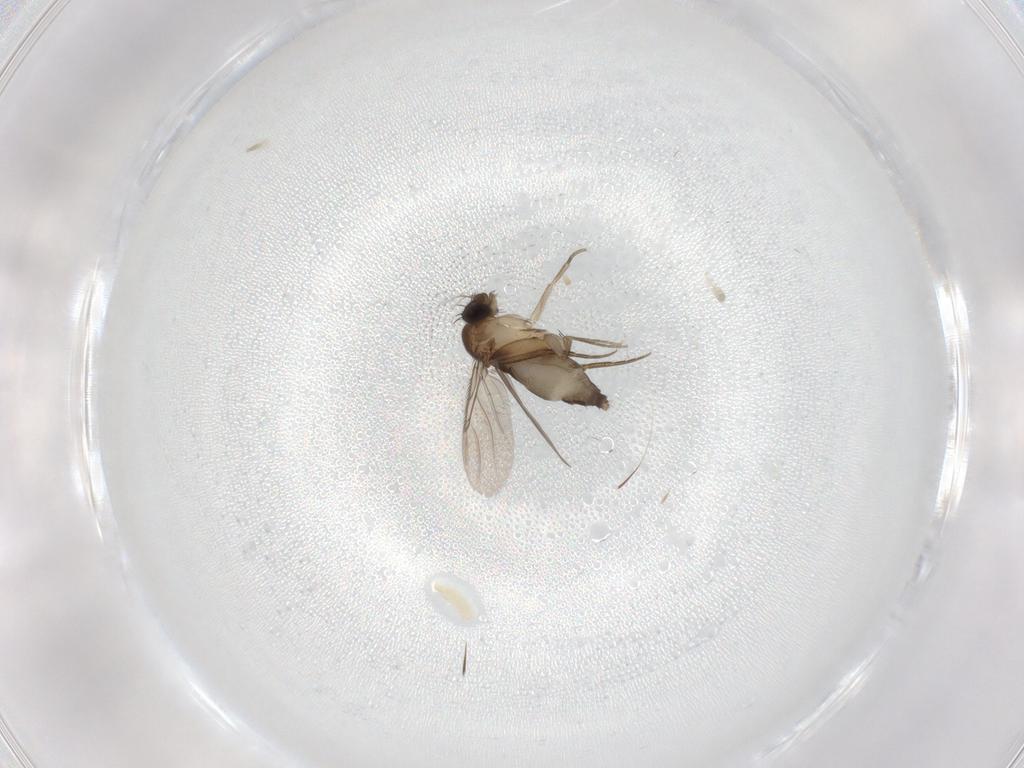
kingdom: Animalia
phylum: Arthropoda
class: Insecta
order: Diptera
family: Phoridae
